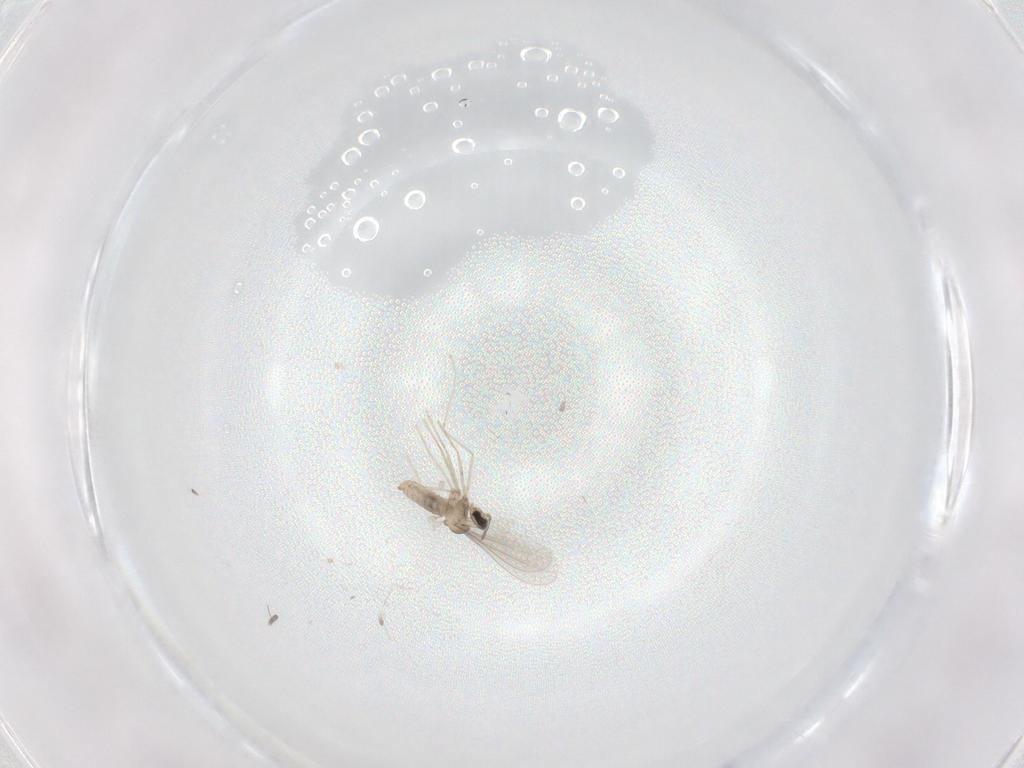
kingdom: Animalia
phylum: Arthropoda
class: Insecta
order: Diptera
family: Cecidomyiidae
